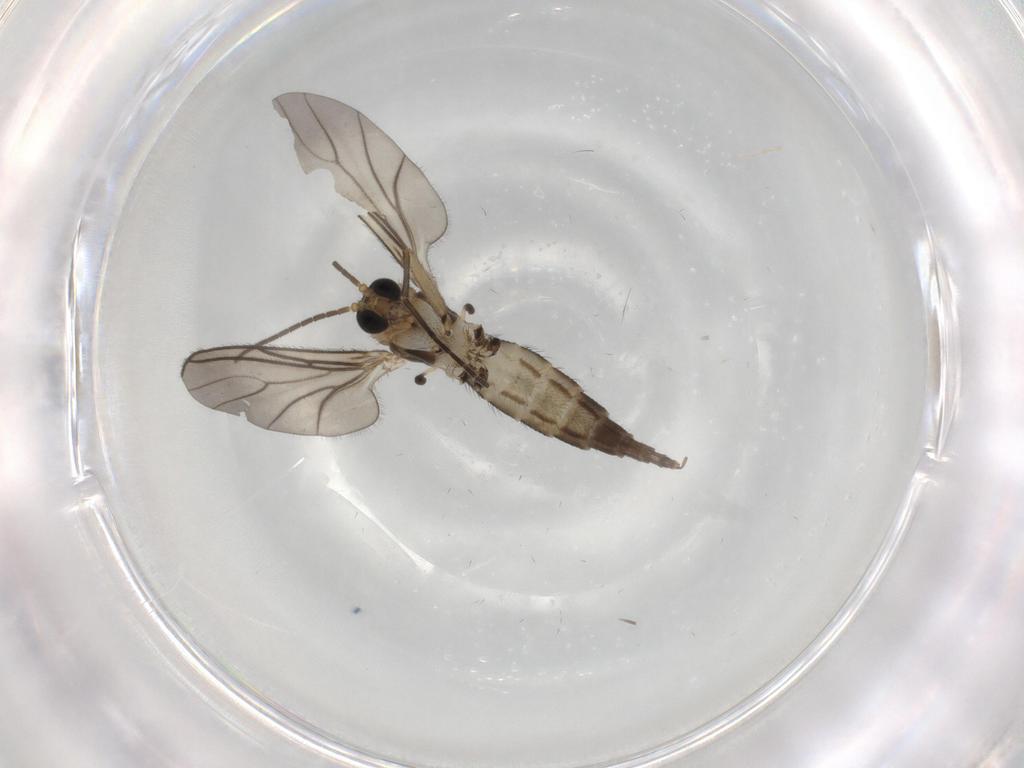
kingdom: Animalia
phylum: Arthropoda
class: Insecta
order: Diptera
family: Sciaridae
